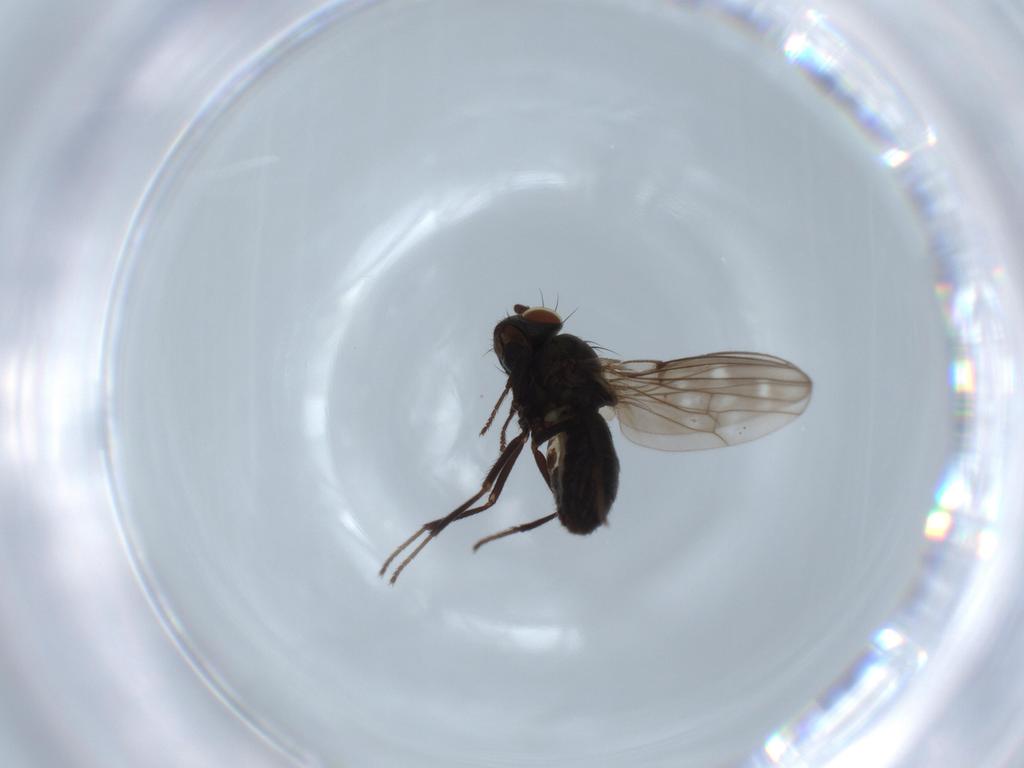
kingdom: Animalia
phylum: Arthropoda
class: Insecta
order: Diptera
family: Ephydridae
